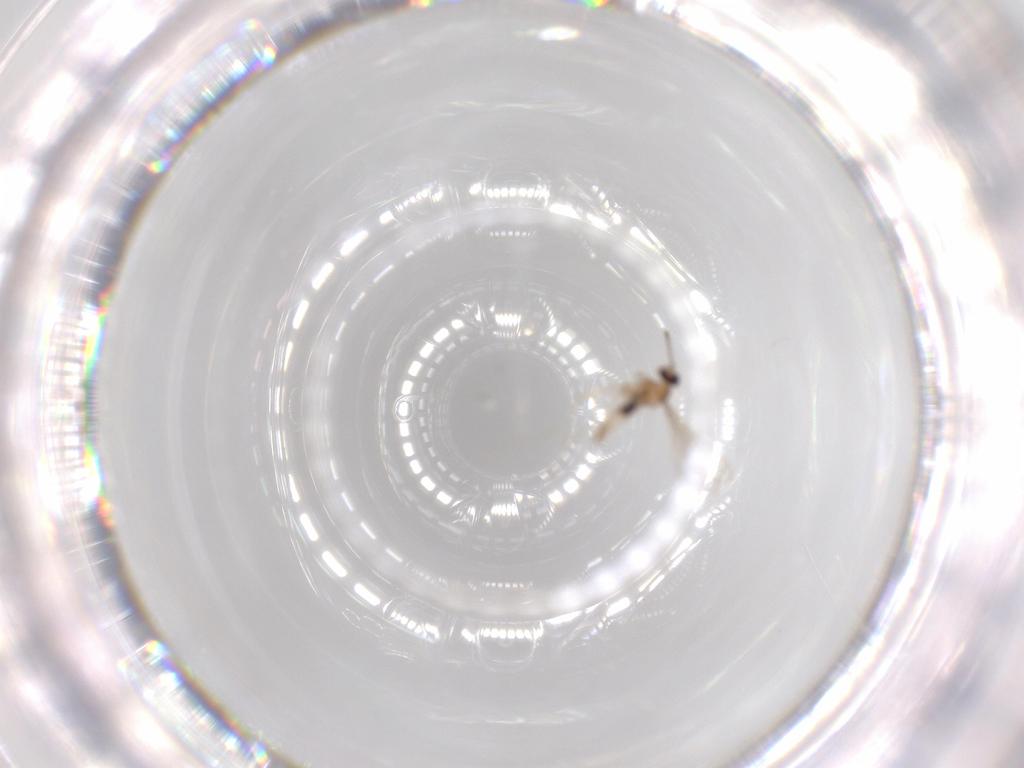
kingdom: Animalia
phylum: Arthropoda
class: Insecta
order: Diptera
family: Cecidomyiidae
